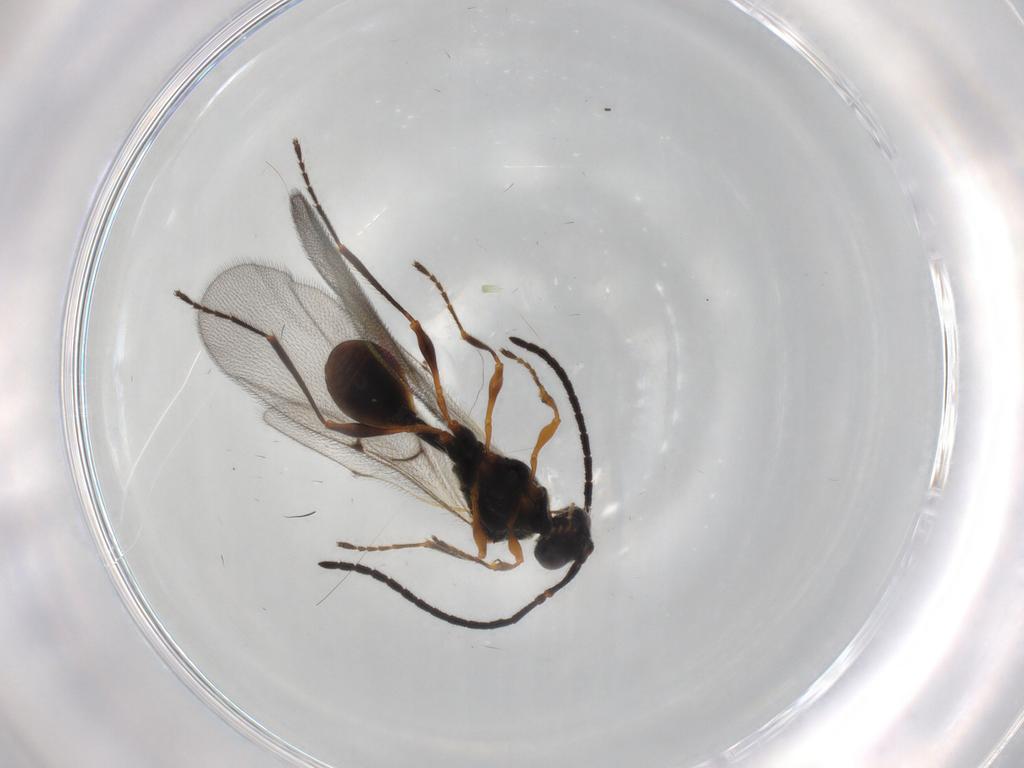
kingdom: Animalia
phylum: Arthropoda
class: Insecta
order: Hymenoptera
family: Diapriidae
